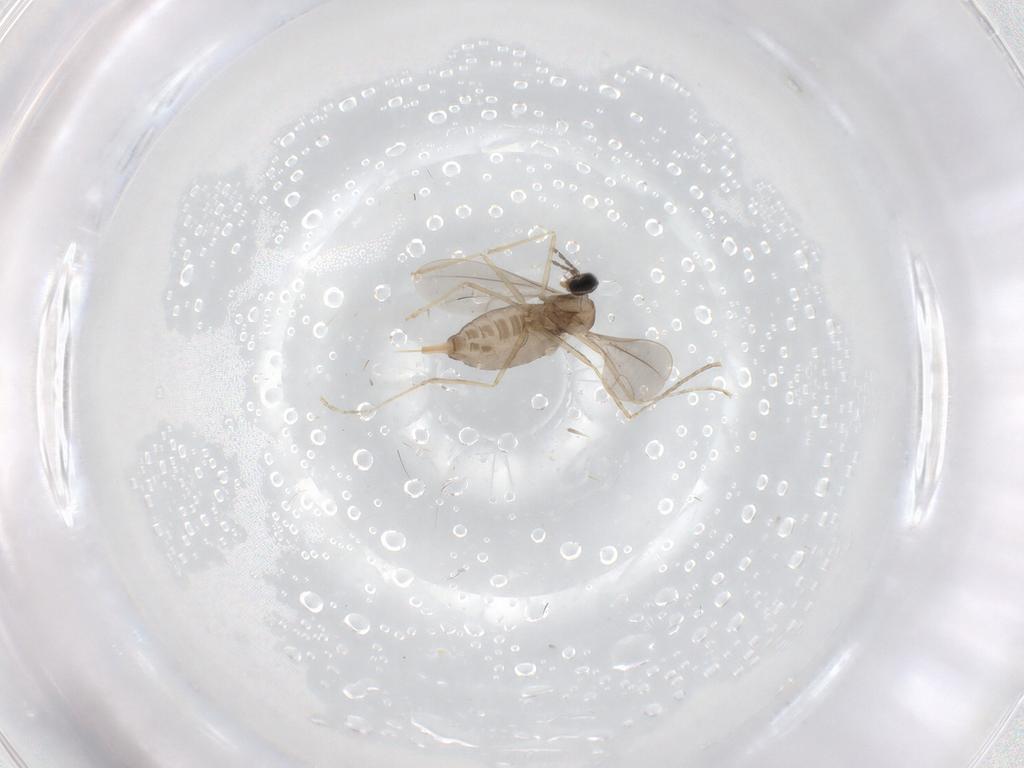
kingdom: Animalia
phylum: Arthropoda
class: Insecta
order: Diptera
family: Cecidomyiidae
